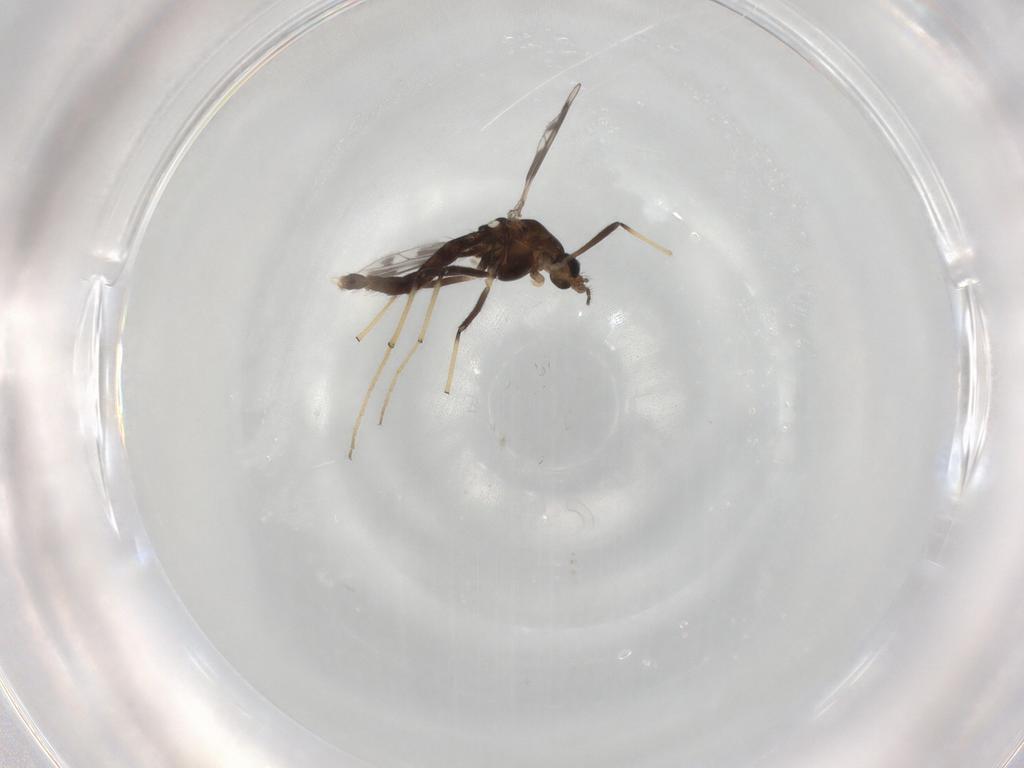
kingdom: Animalia
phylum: Arthropoda
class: Insecta
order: Diptera
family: Chironomidae
